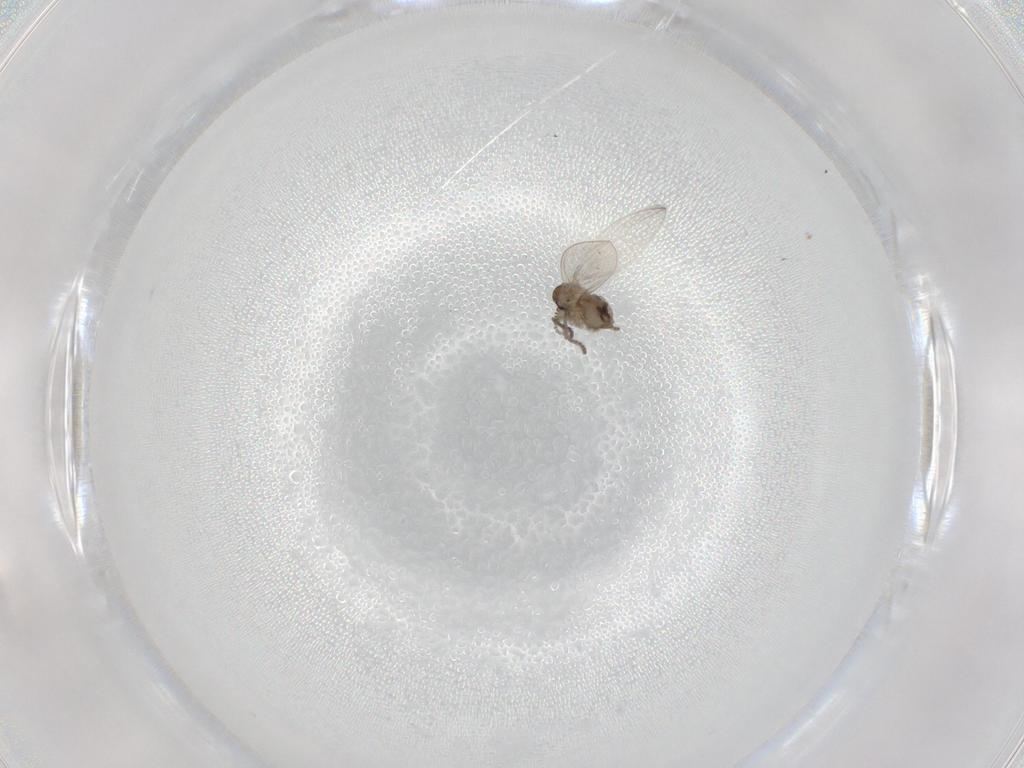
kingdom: Animalia
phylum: Arthropoda
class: Insecta
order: Diptera
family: Psychodidae
